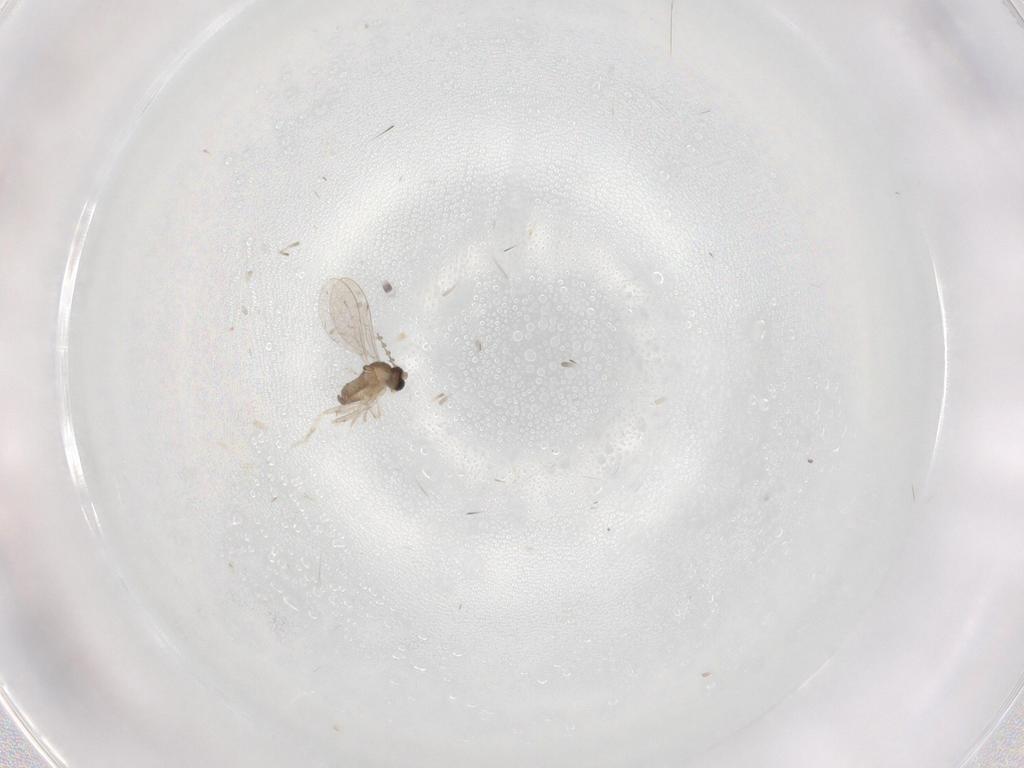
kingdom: Animalia
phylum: Arthropoda
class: Insecta
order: Diptera
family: Cecidomyiidae
